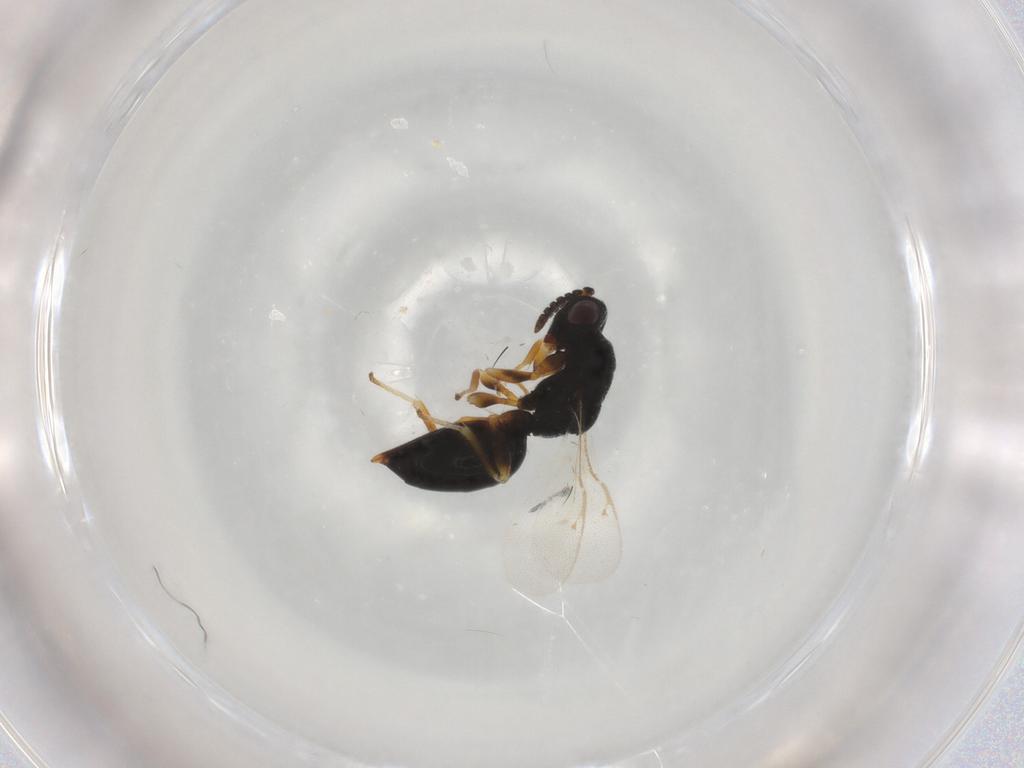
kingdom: Animalia
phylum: Arthropoda
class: Insecta
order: Hymenoptera
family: Eurytomidae
